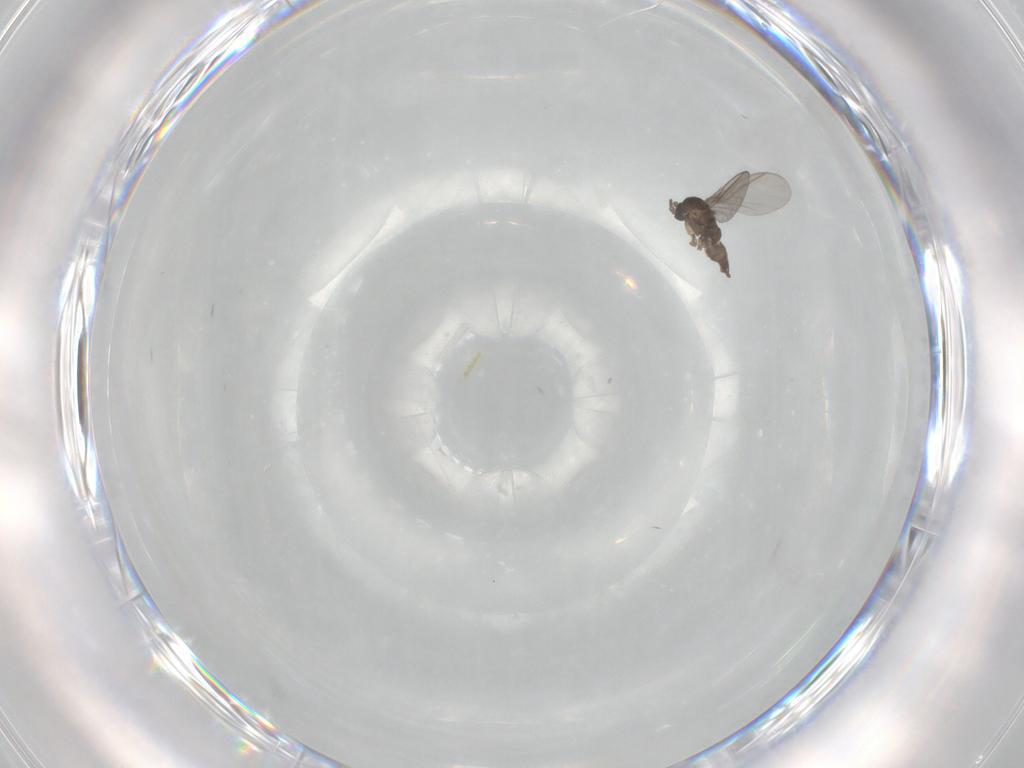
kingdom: Animalia
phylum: Arthropoda
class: Insecta
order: Diptera
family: Sciaridae
